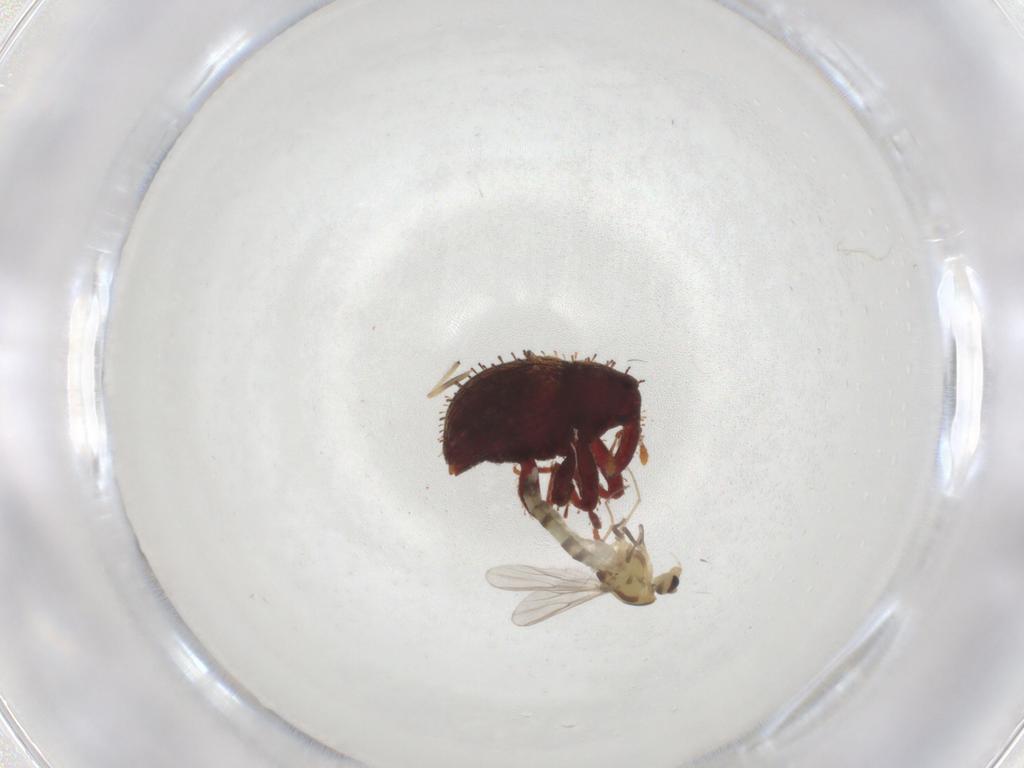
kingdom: Animalia
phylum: Arthropoda
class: Insecta
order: Diptera
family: Chironomidae
